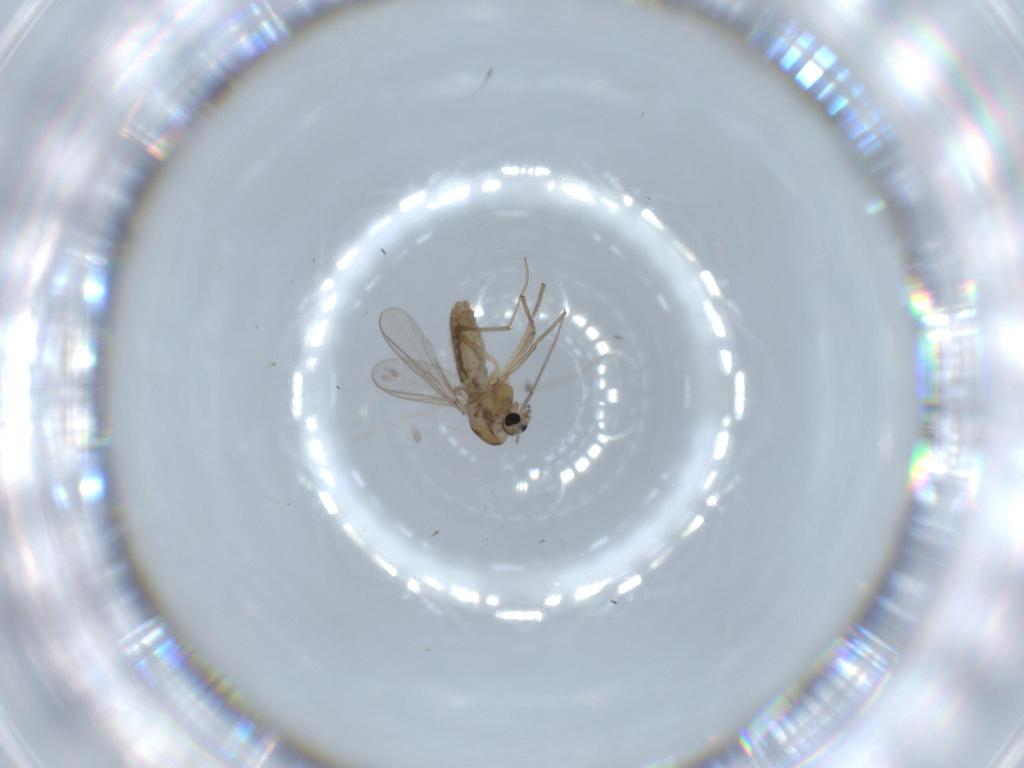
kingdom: Animalia
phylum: Arthropoda
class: Insecta
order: Diptera
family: Chironomidae
